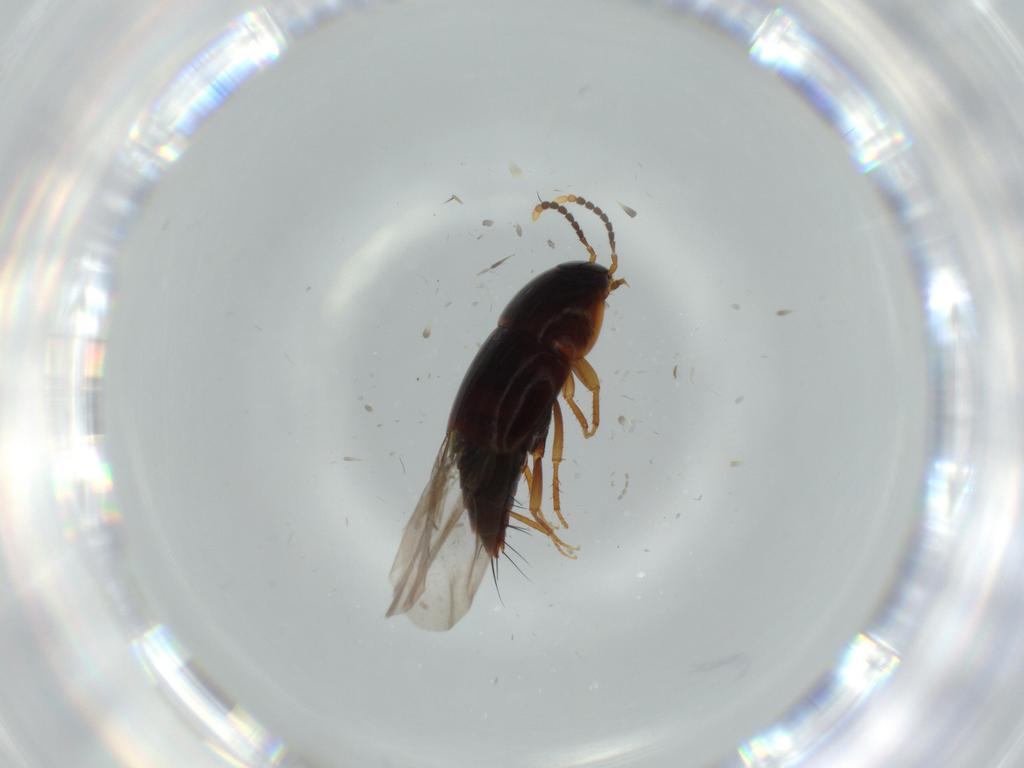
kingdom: Animalia
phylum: Arthropoda
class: Insecta
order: Coleoptera
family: Staphylinidae
